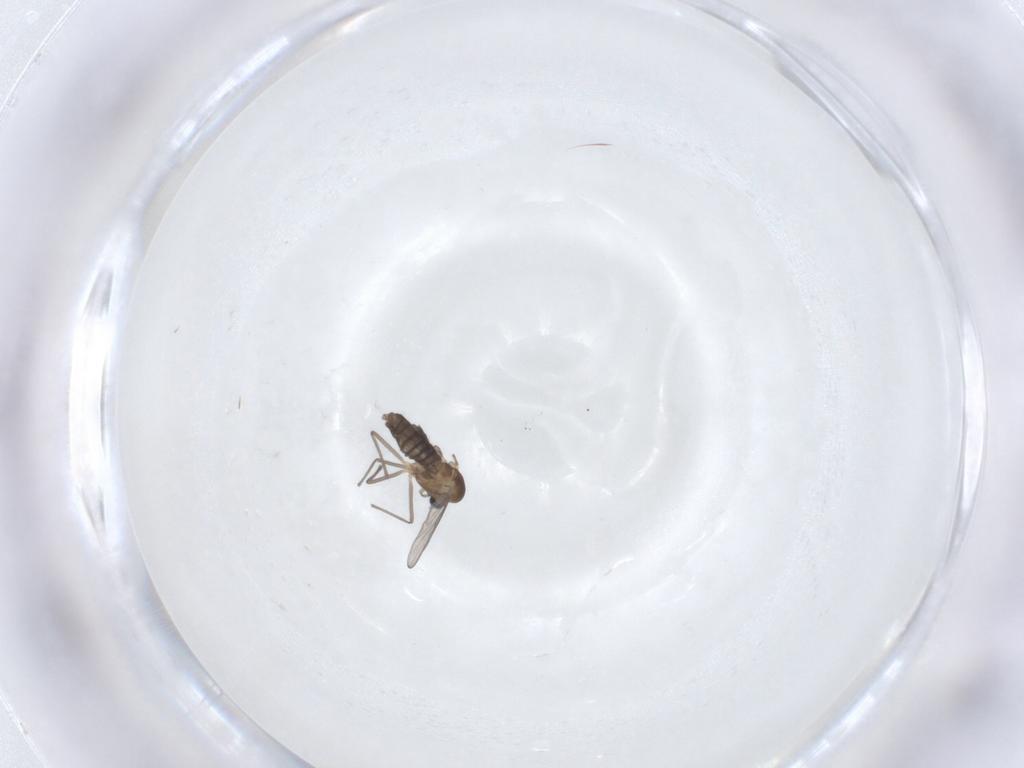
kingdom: Animalia
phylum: Arthropoda
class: Insecta
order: Diptera
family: Chironomidae
